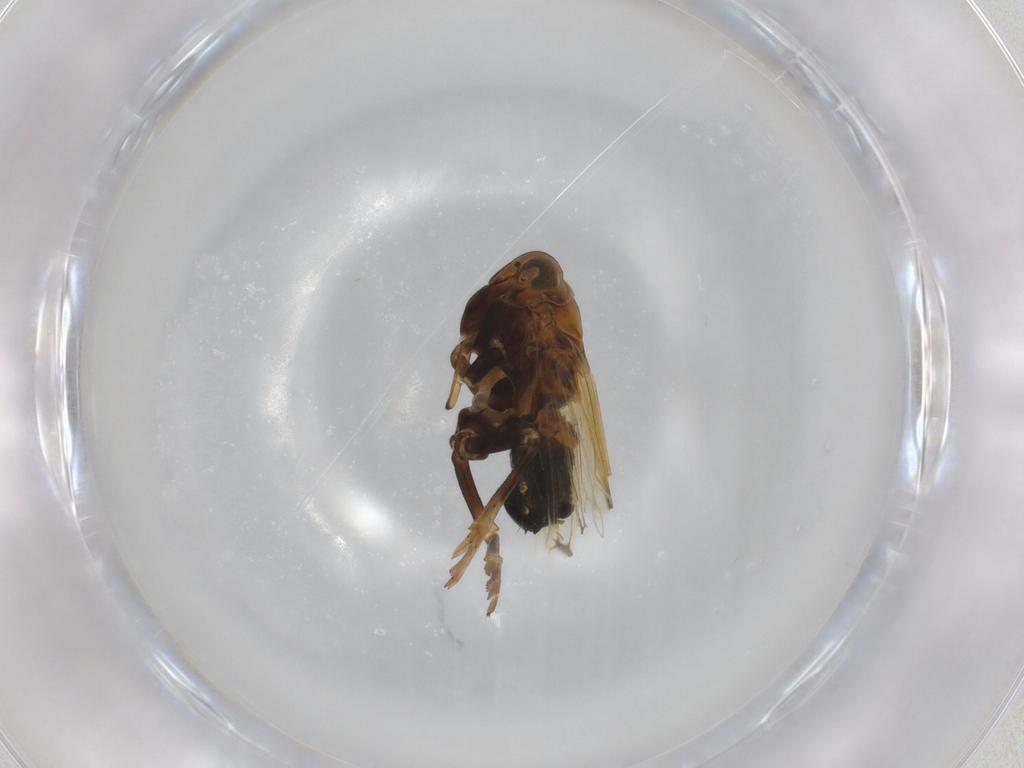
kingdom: Animalia
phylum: Arthropoda
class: Insecta
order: Hemiptera
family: Delphacidae
